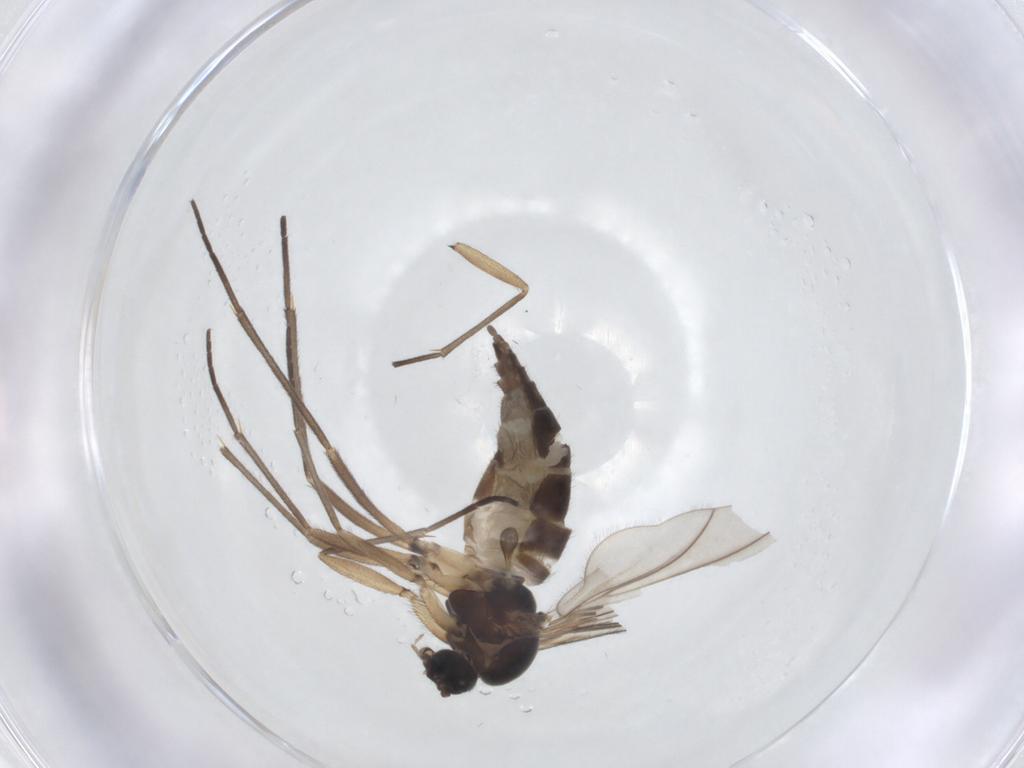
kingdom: Animalia
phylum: Arthropoda
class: Insecta
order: Diptera
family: Sciaridae
